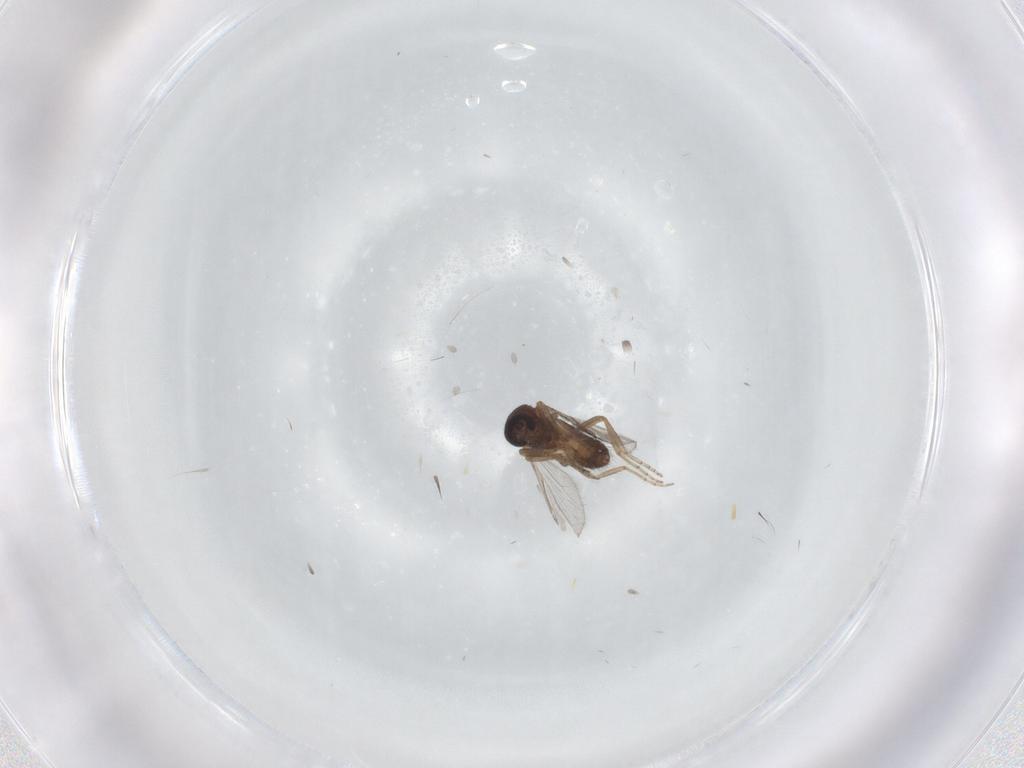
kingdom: Animalia
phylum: Arthropoda
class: Insecta
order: Diptera
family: Ceratopogonidae
